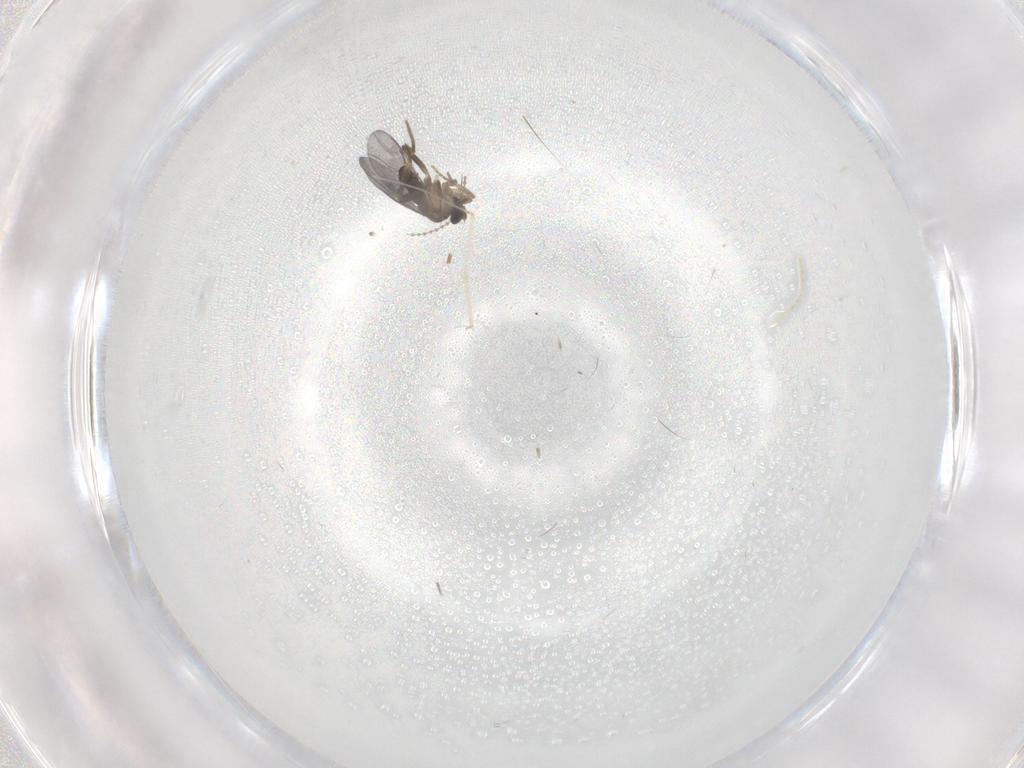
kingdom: Animalia
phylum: Arthropoda
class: Insecta
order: Diptera
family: Cecidomyiidae
